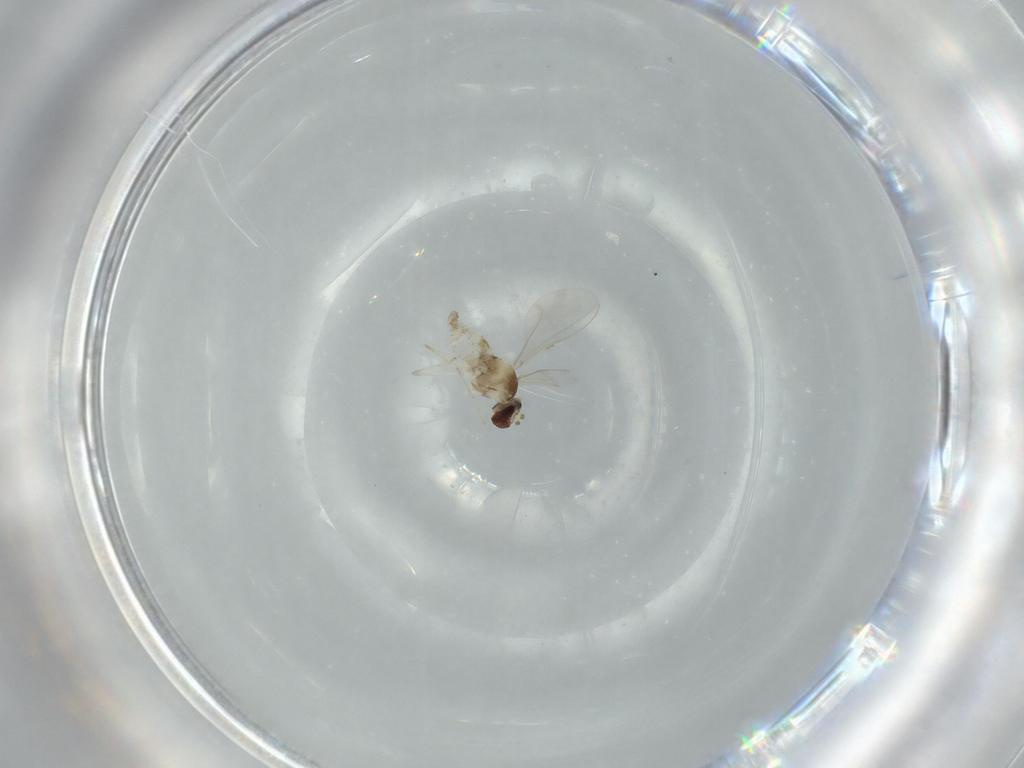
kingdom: Animalia
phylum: Arthropoda
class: Insecta
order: Diptera
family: Cecidomyiidae
